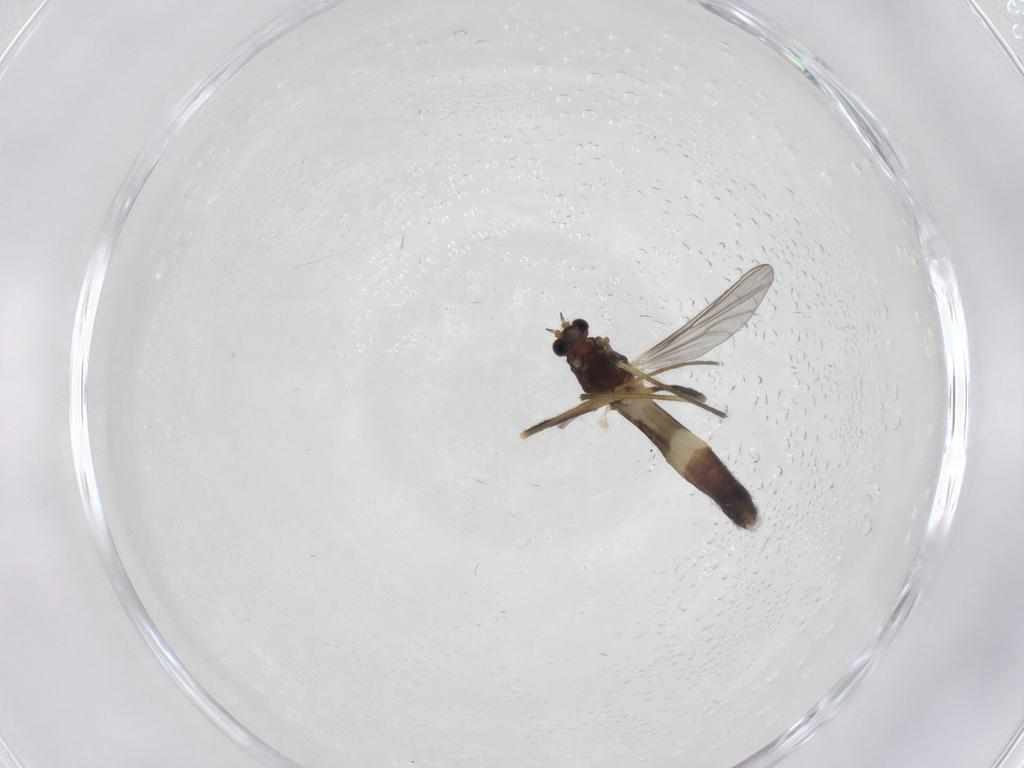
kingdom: Animalia
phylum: Arthropoda
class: Insecta
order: Diptera
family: Chironomidae
